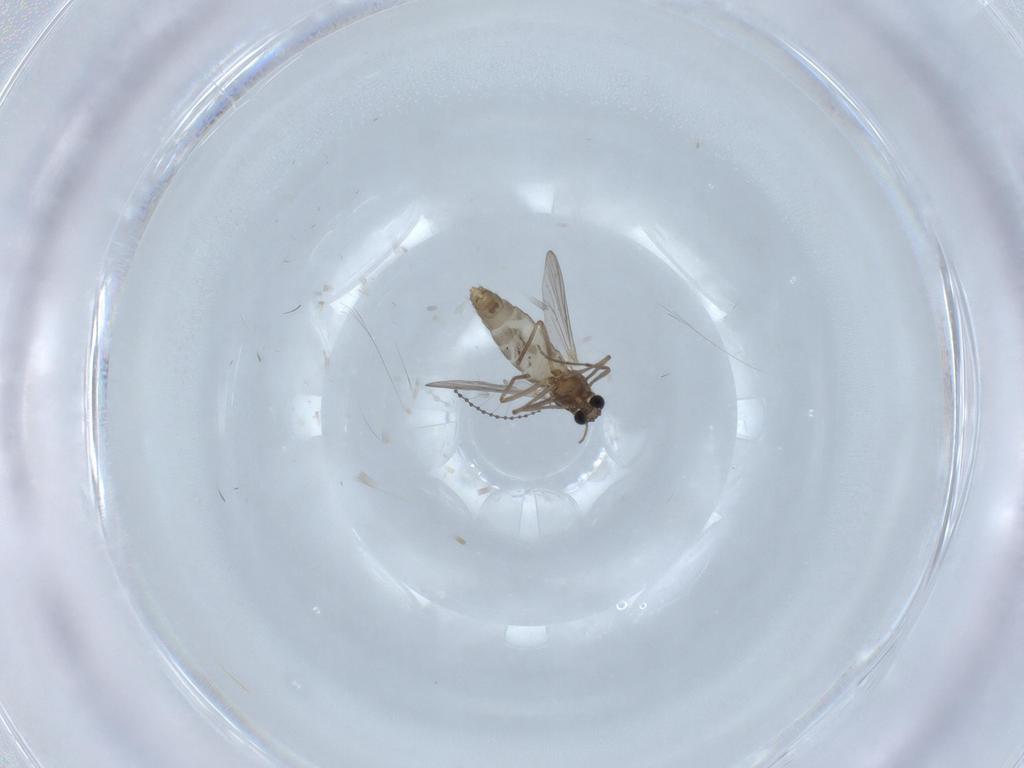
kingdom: Animalia
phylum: Arthropoda
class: Insecta
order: Diptera
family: Chironomidae
